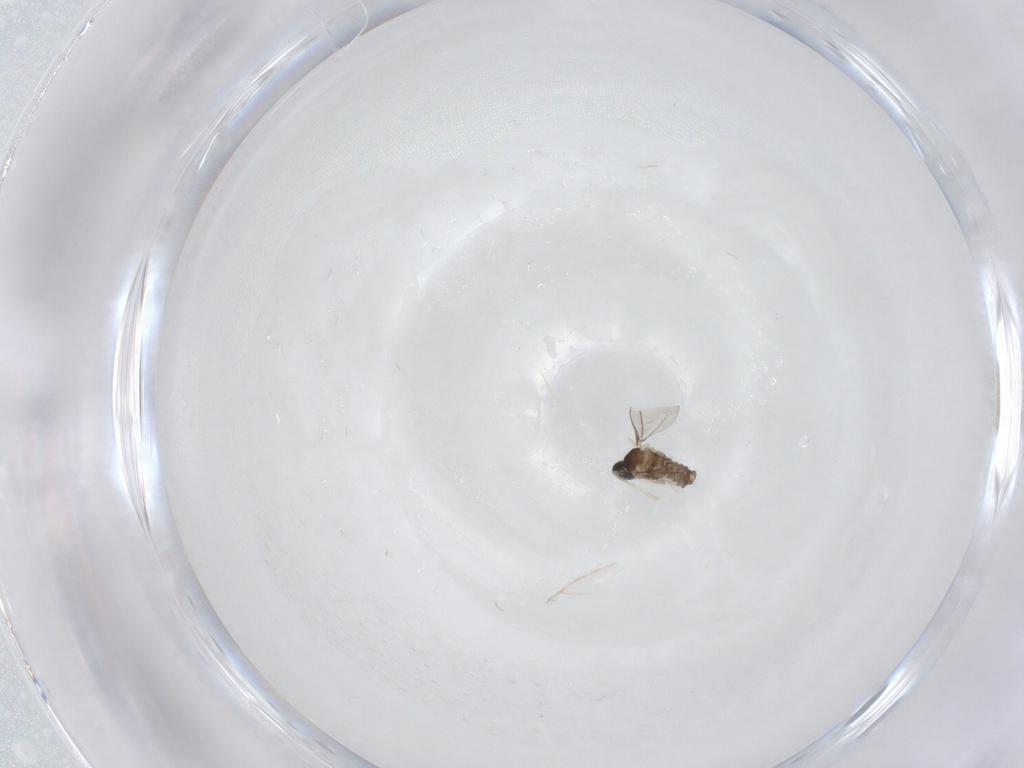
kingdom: Animalia
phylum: Arthropoda
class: Insecta
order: Diptera
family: Cecidomyiidae
